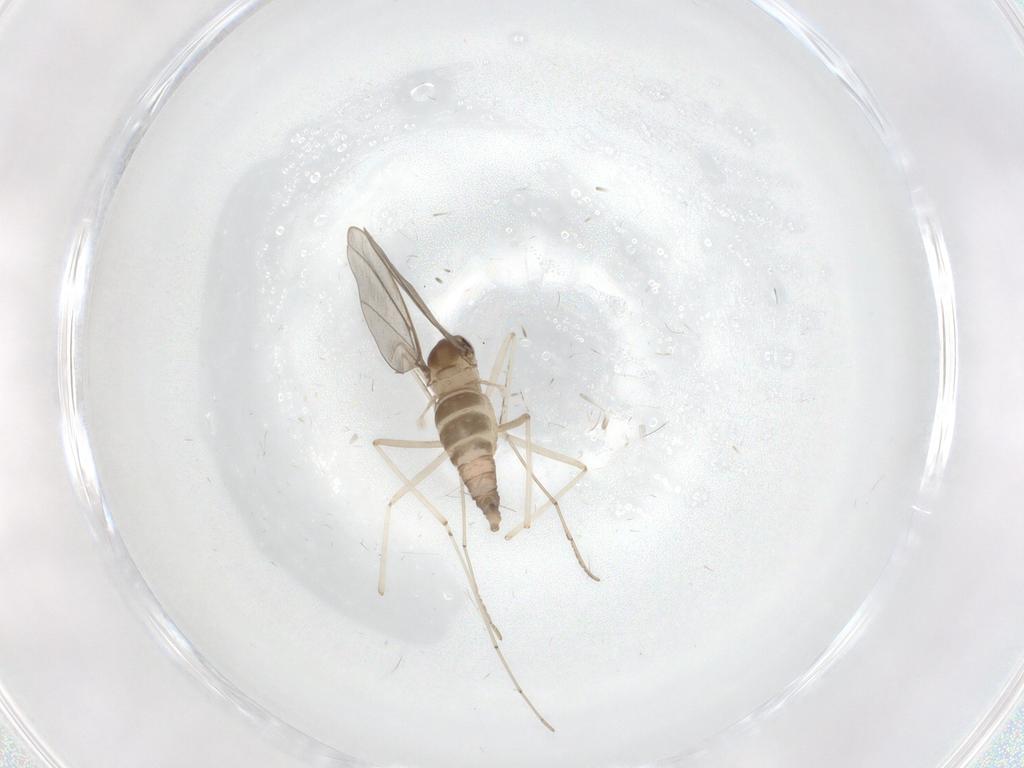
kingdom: Animalia
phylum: Arthropoda
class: Insecta
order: Diptera
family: Cecidomyiidae
